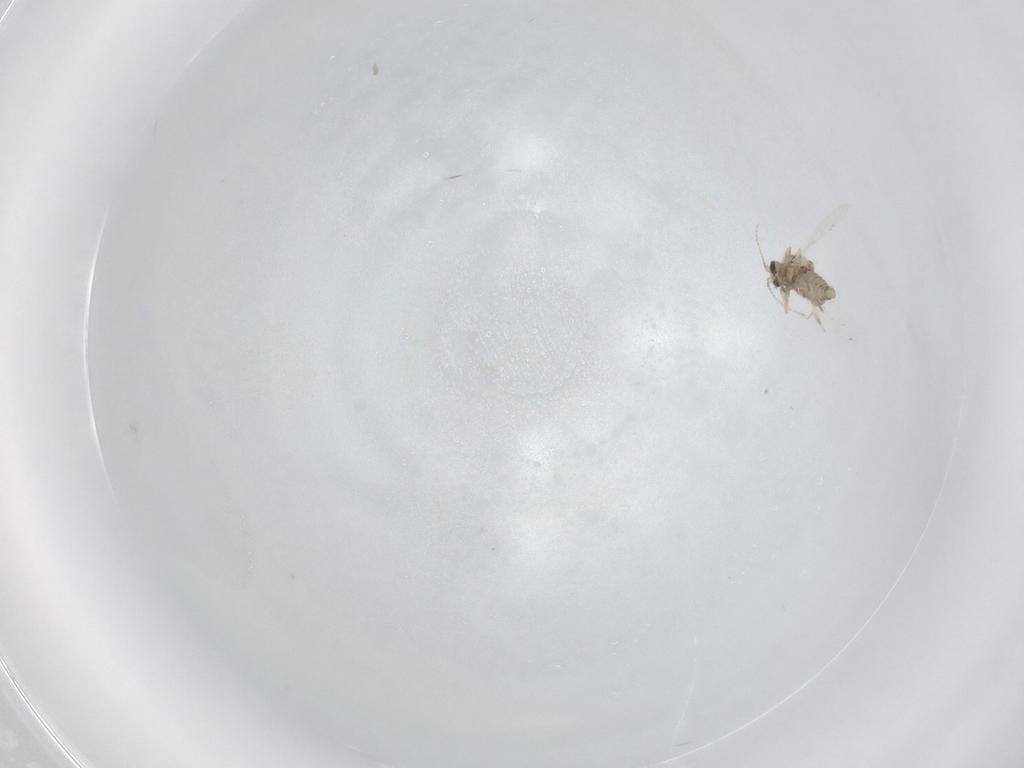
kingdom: Animalia
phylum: Arthropoda
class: Insecta
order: Diptera
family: Ceratopogonidae
